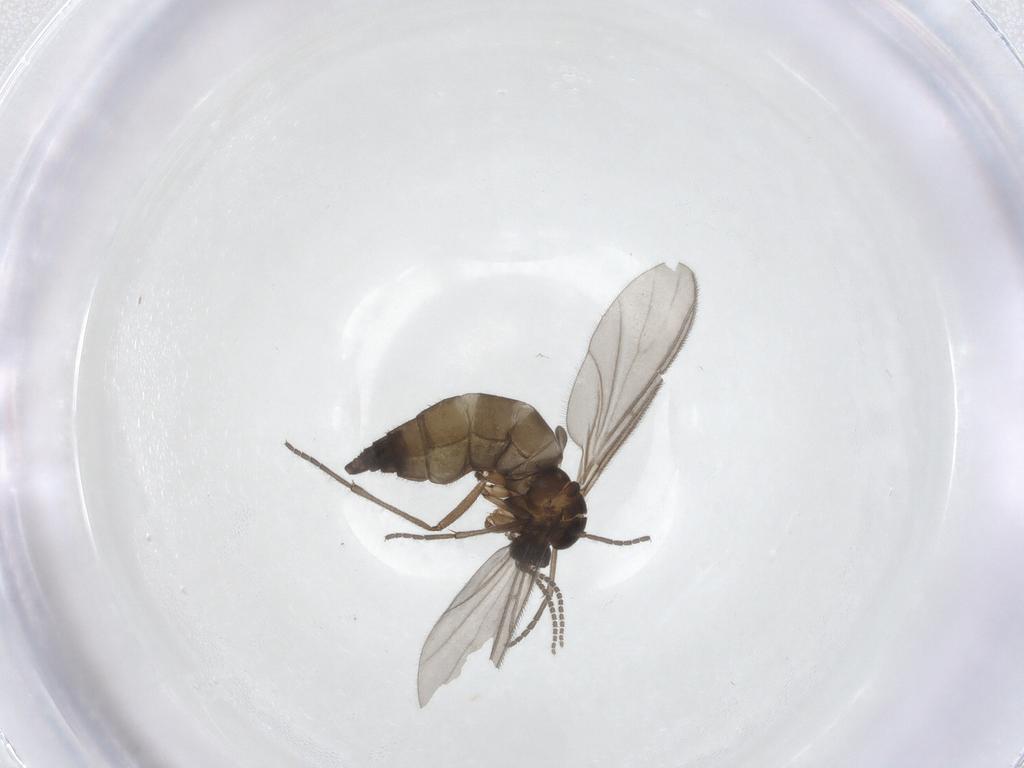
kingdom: Animalia
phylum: Arthropoda
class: Insecta
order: Diptera
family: Sciaridae
